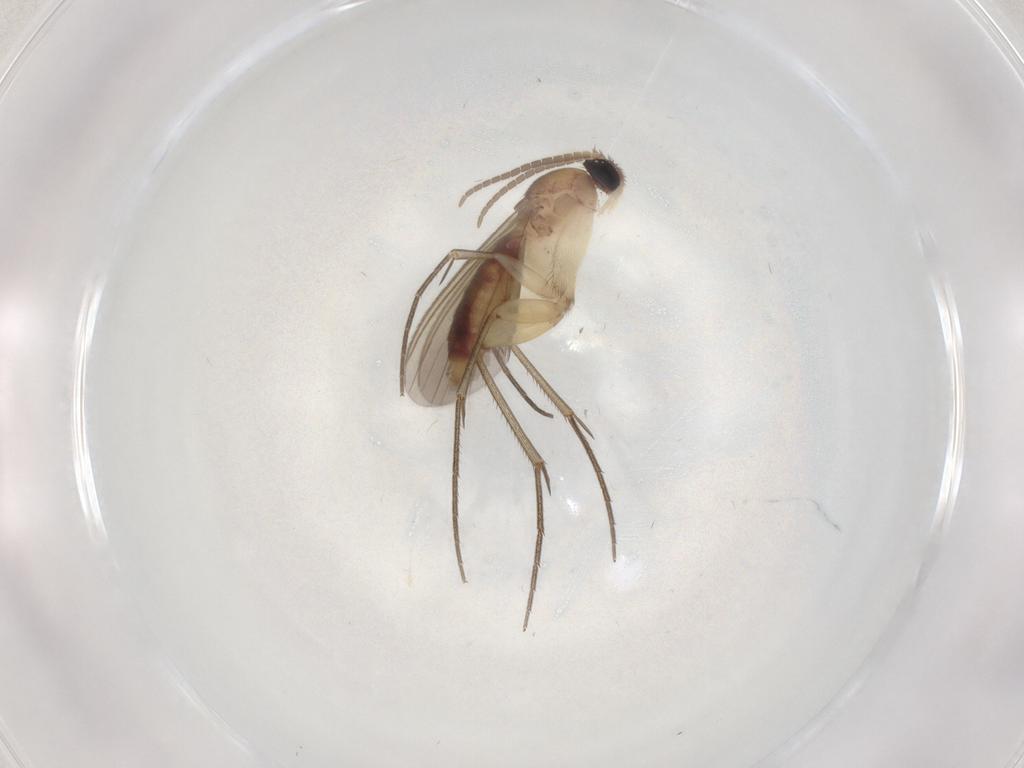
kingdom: Animalia
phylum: Arthropoda
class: Insecta
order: Diptera
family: Mycetophilidae
